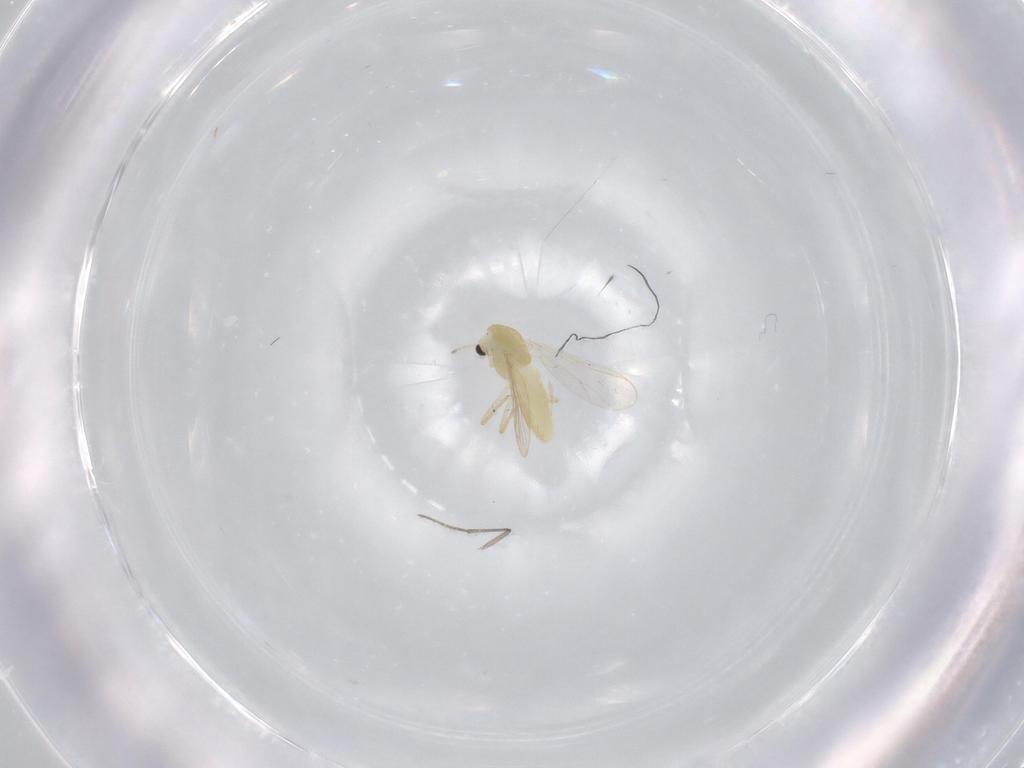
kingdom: Animalia
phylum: Arthropoda
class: Insecta
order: Diptera
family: Chironomidae
